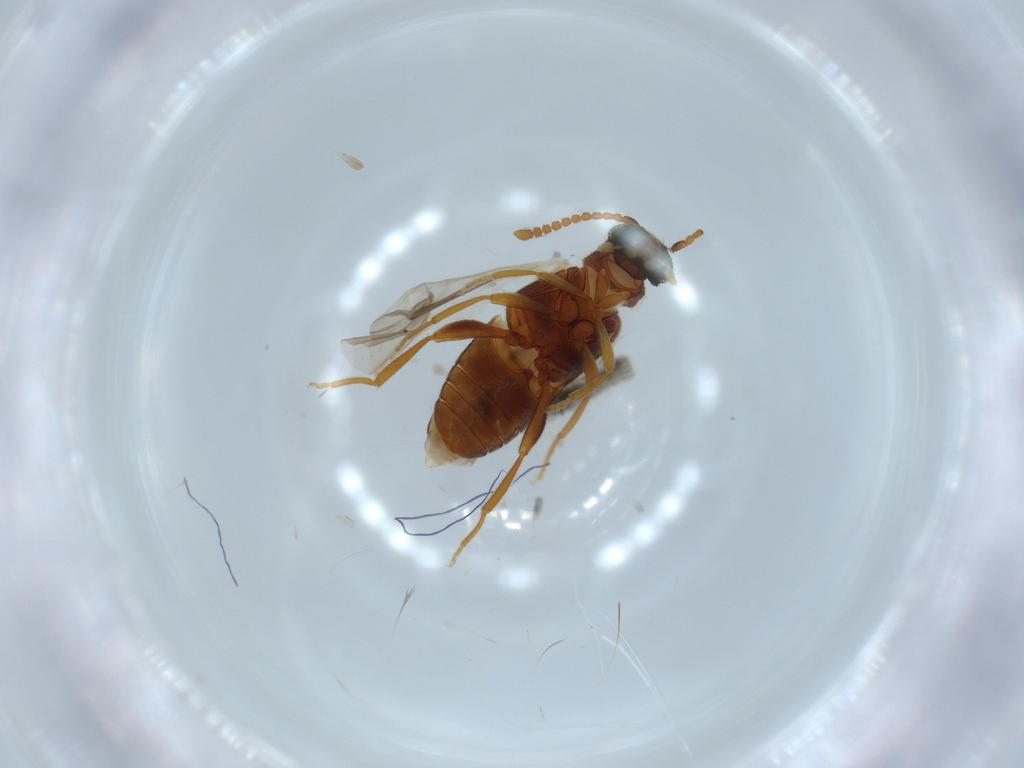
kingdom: Animalia
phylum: Arthropoda
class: Insecta
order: Coleoptera
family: Aderidae
